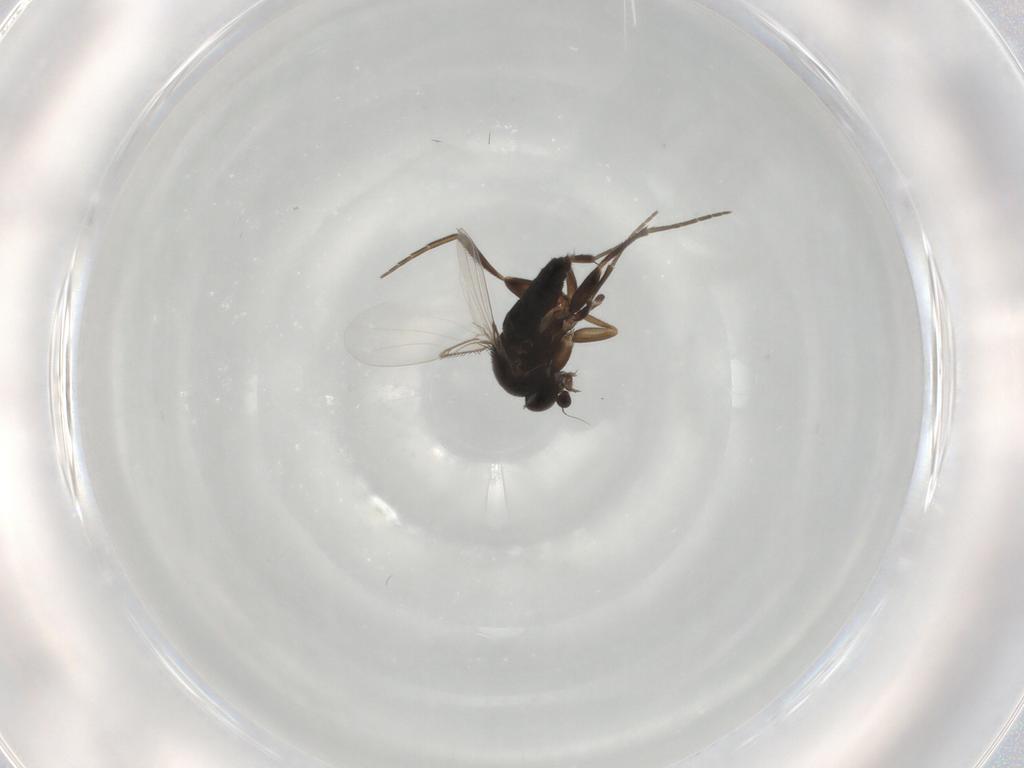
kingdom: Animalia
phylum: Arthropoda
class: Insecta
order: Diptera
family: Phoridae
